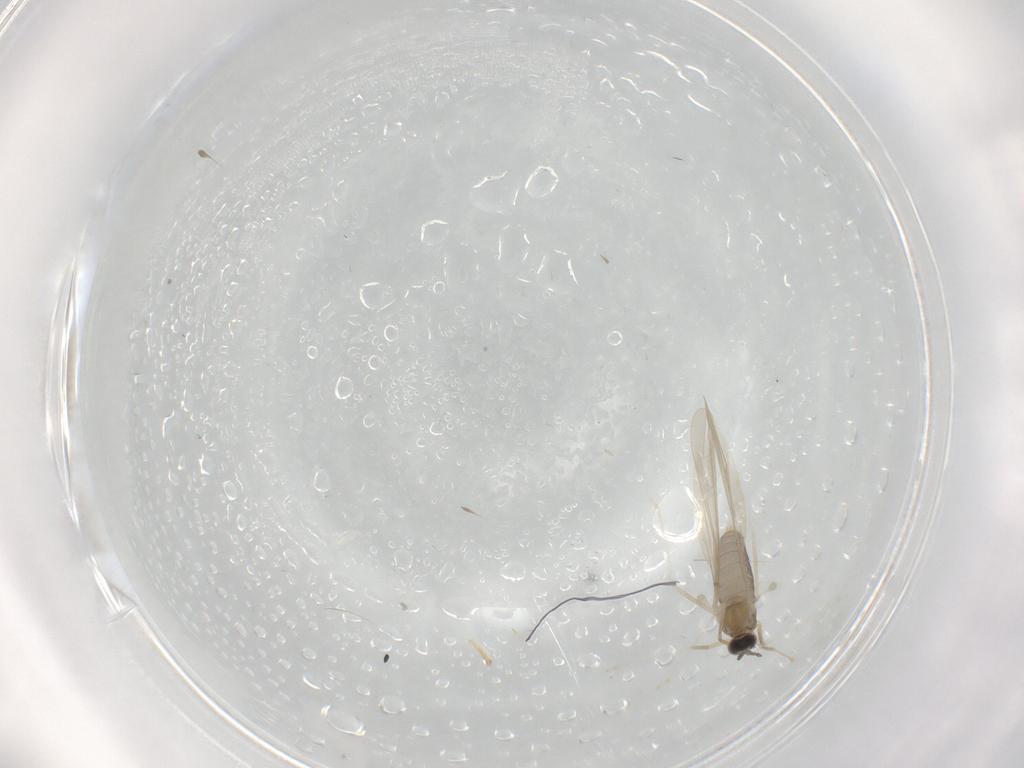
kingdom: Animalia
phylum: Arthropoda
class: Insecta
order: Diptera
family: Cecidomyiidae
